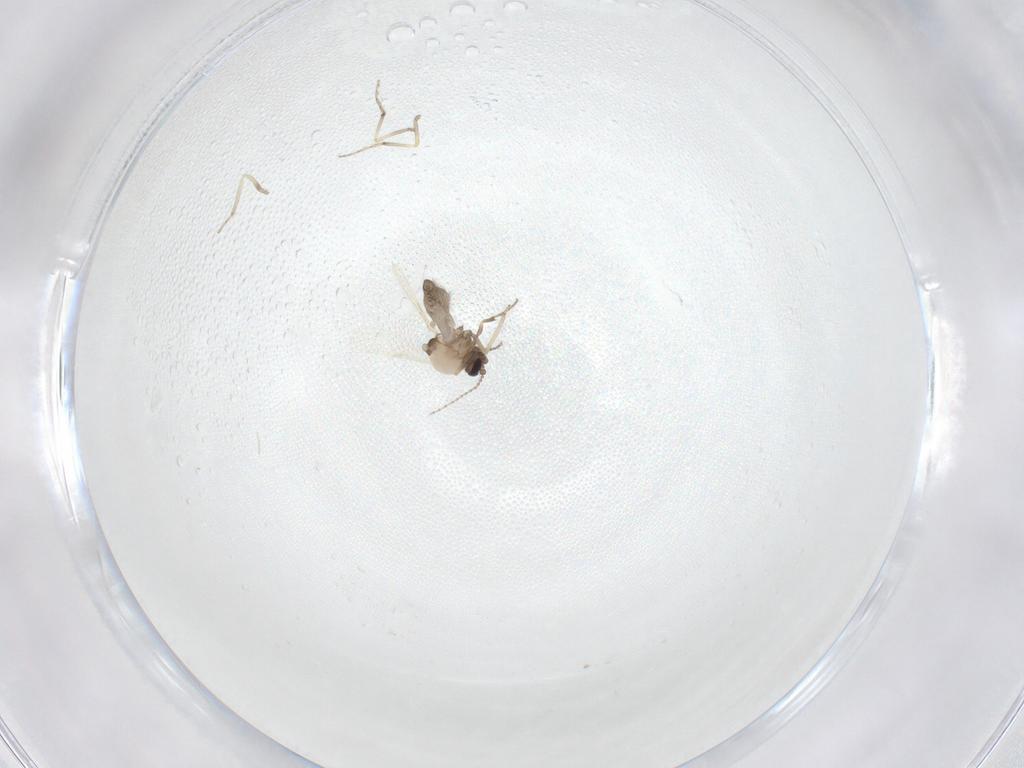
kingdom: Animalia
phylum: Arthropoda
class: Insecta
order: Diptera
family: Ceratopogonidae
